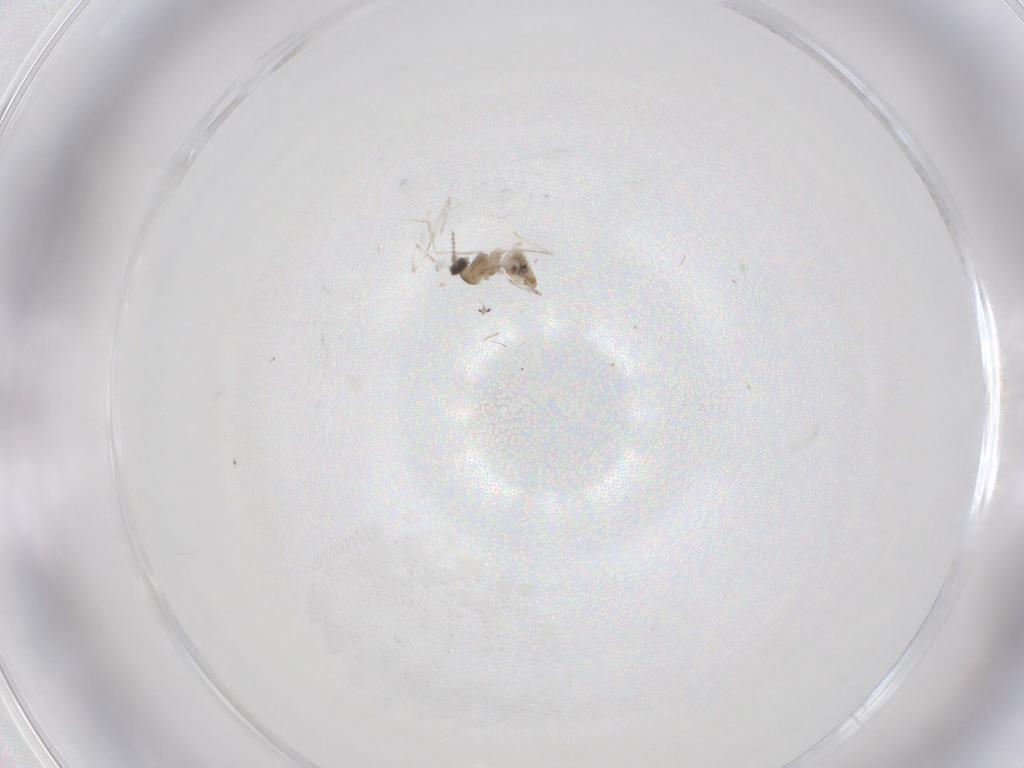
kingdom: Animalia
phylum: Arthropoda
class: Insecta
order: Diptera
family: Cecidomyiidae
